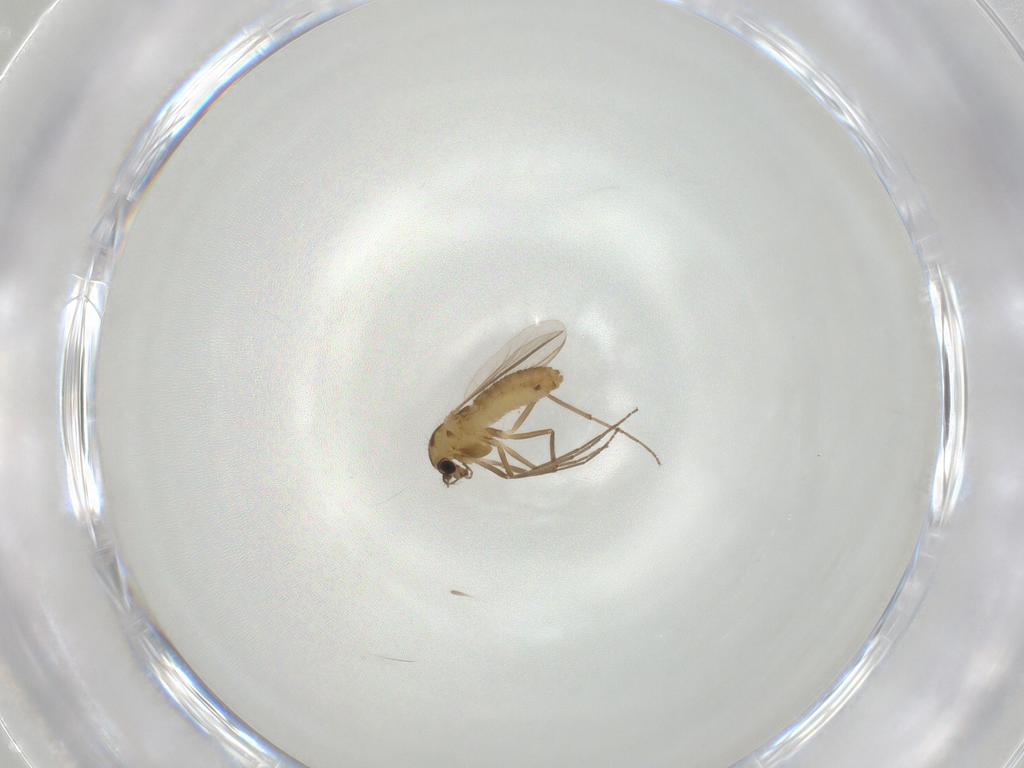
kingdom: Animalia
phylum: Arthropoda
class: Insecta
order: Diptera
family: Chironomidae
